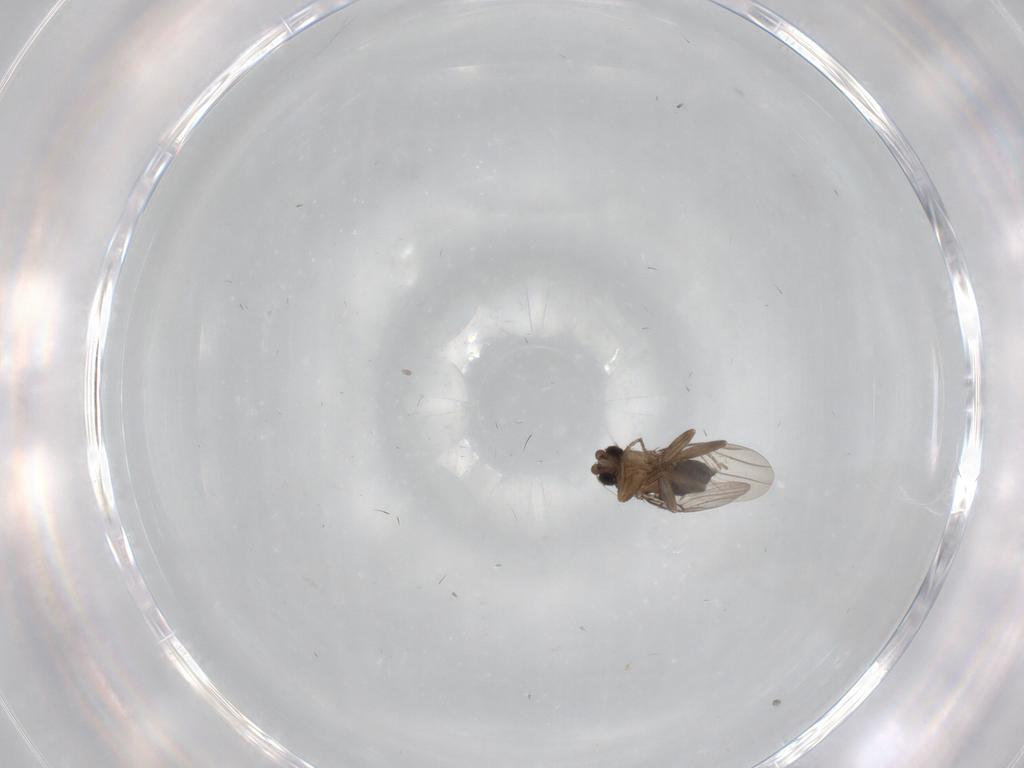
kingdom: Animalia
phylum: Arthropoda
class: Insecta
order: Diptera
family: Phoridae
